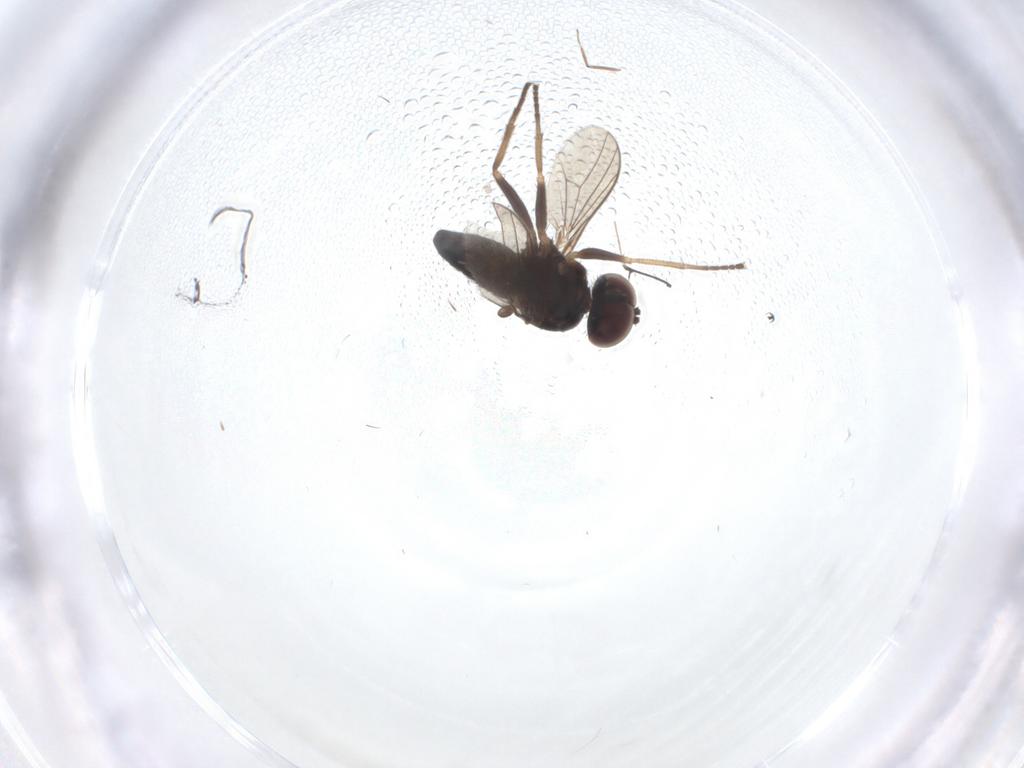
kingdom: Animalia
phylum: Arthropoda
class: Insecta
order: Diptera
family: Dolichopodidae
